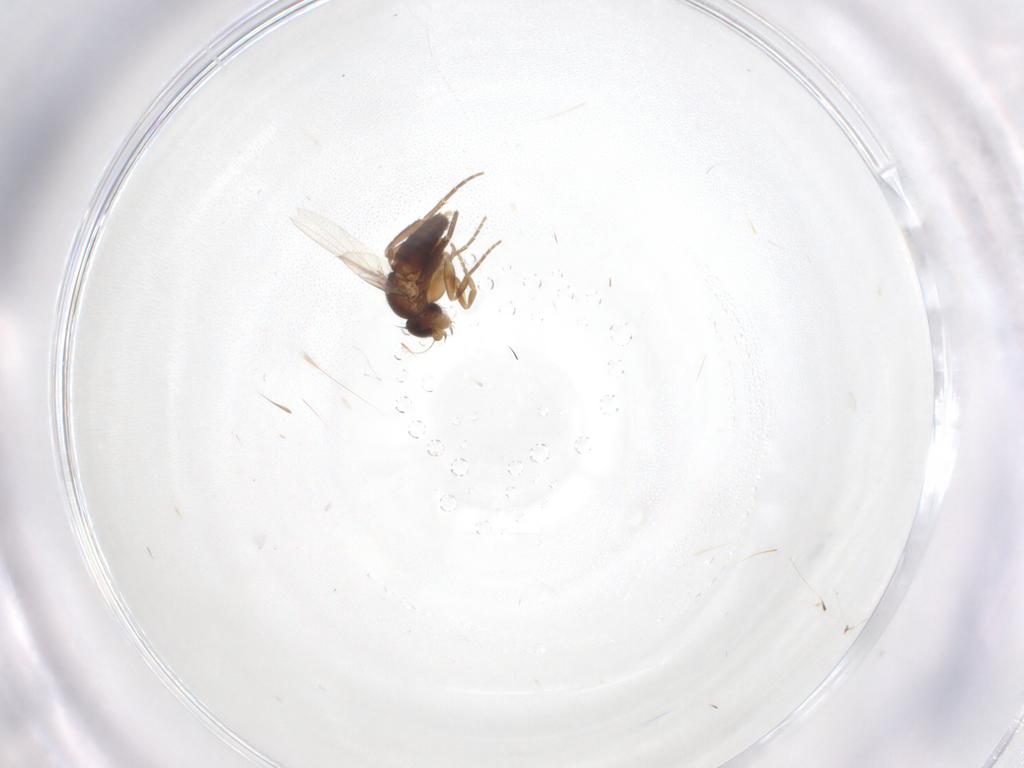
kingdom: Animalia
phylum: Arthropoda
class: Insecta
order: Diptera
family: Phoridae
